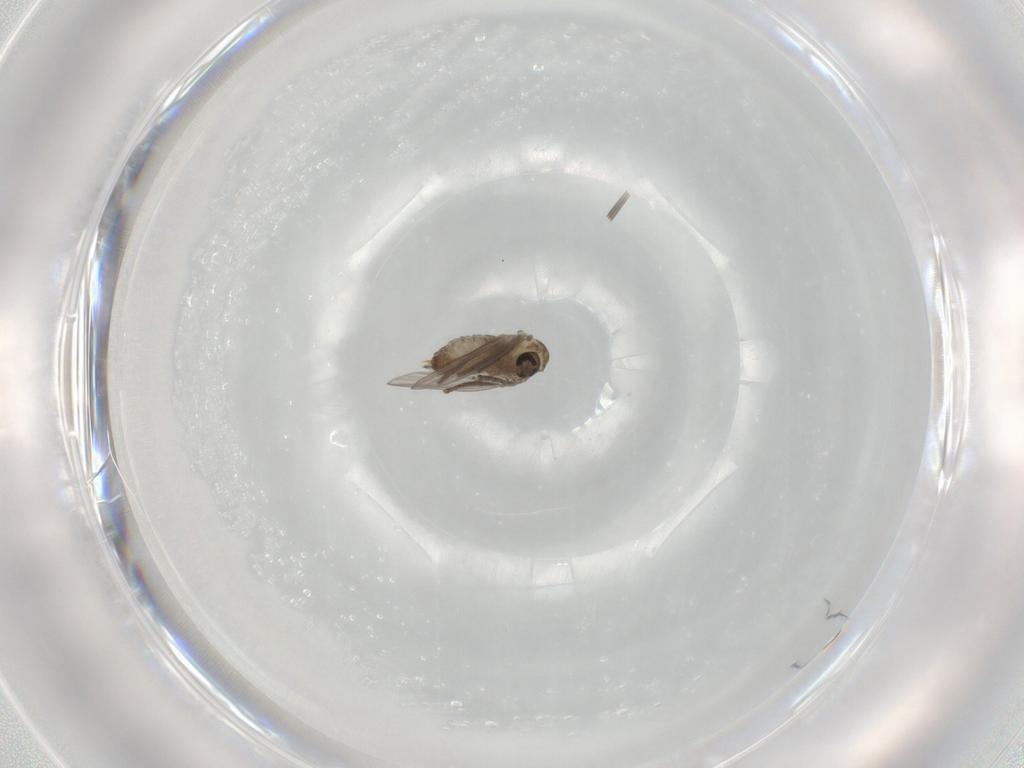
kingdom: Animalia
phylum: Arthropoda
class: Insecta
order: Diptera
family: Psychodidae
